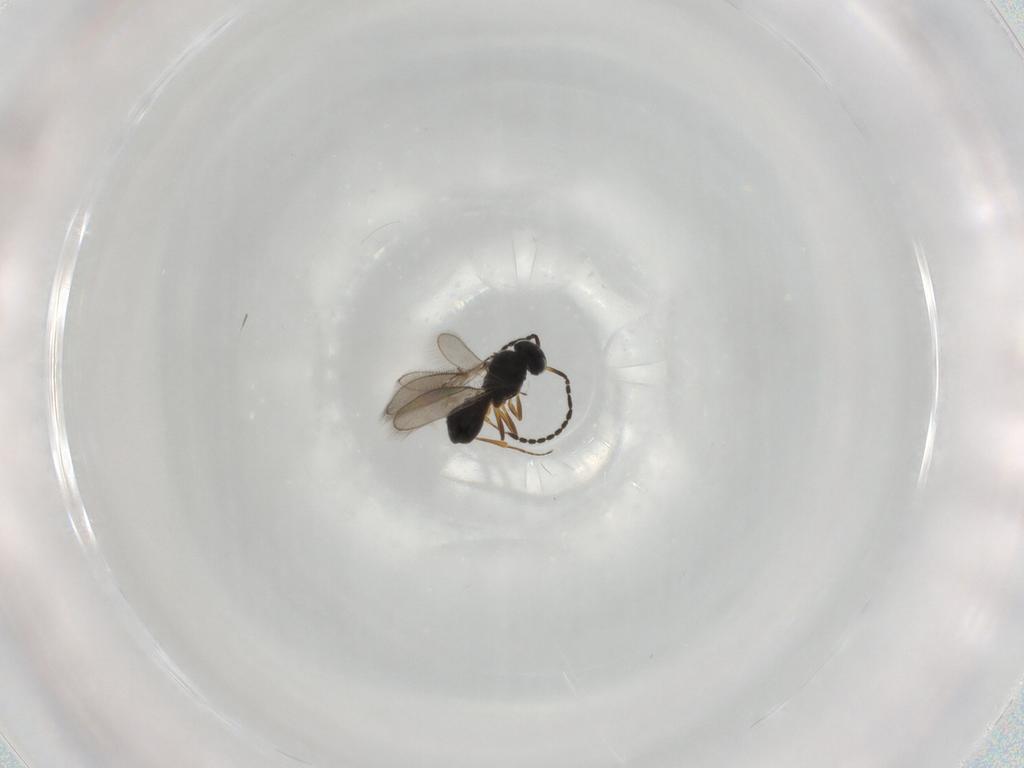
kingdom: Animalia
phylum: Arthropoda
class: Insecta
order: Hymenoptera
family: Scelionidae
